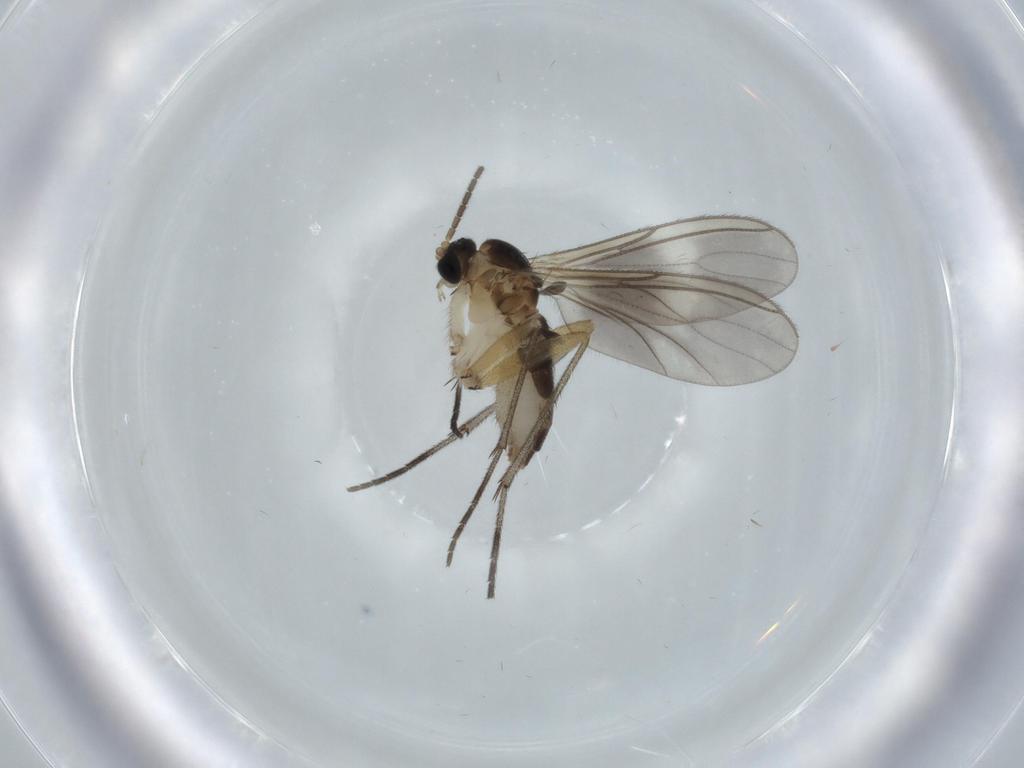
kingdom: Animalia
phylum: Arthropoda
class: Insecta
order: Diptera
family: Sciaridae
